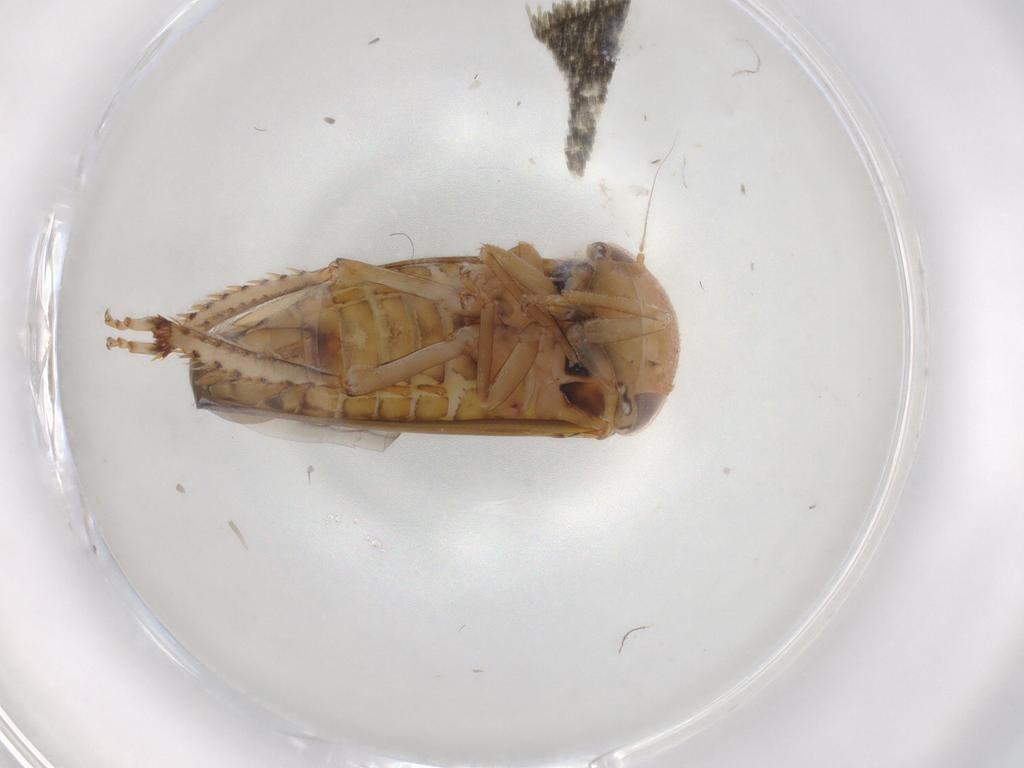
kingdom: Animalia
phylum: Arthropoda
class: Insecta
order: Hemiptera
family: Cicadellidae
